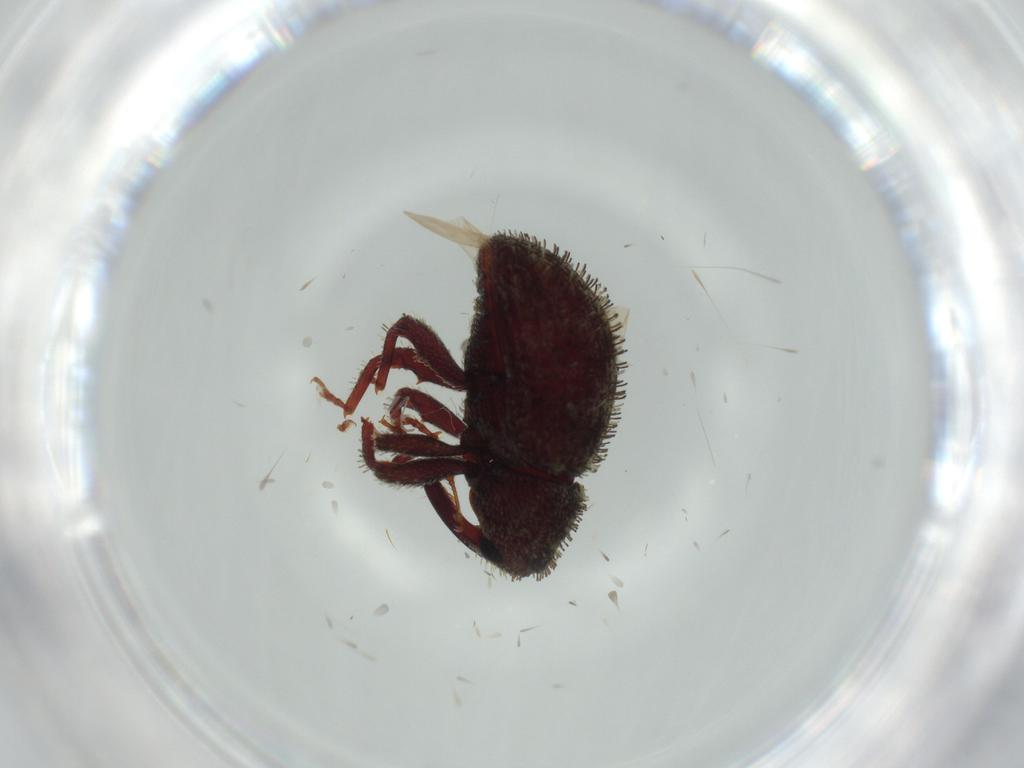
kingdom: Animalia
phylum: Arthropoda
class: Insecta
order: Coleoptera
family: Curculionidae
